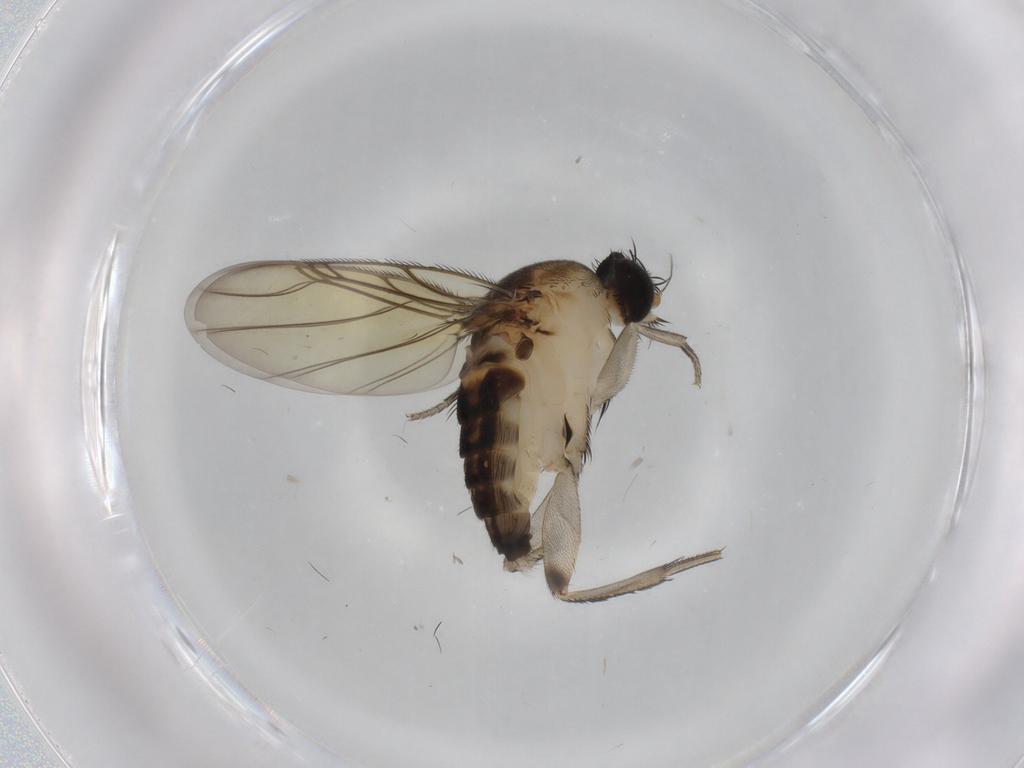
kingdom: Animalia
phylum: Arthropoda
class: Insecta
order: Diptera
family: Phoridae
